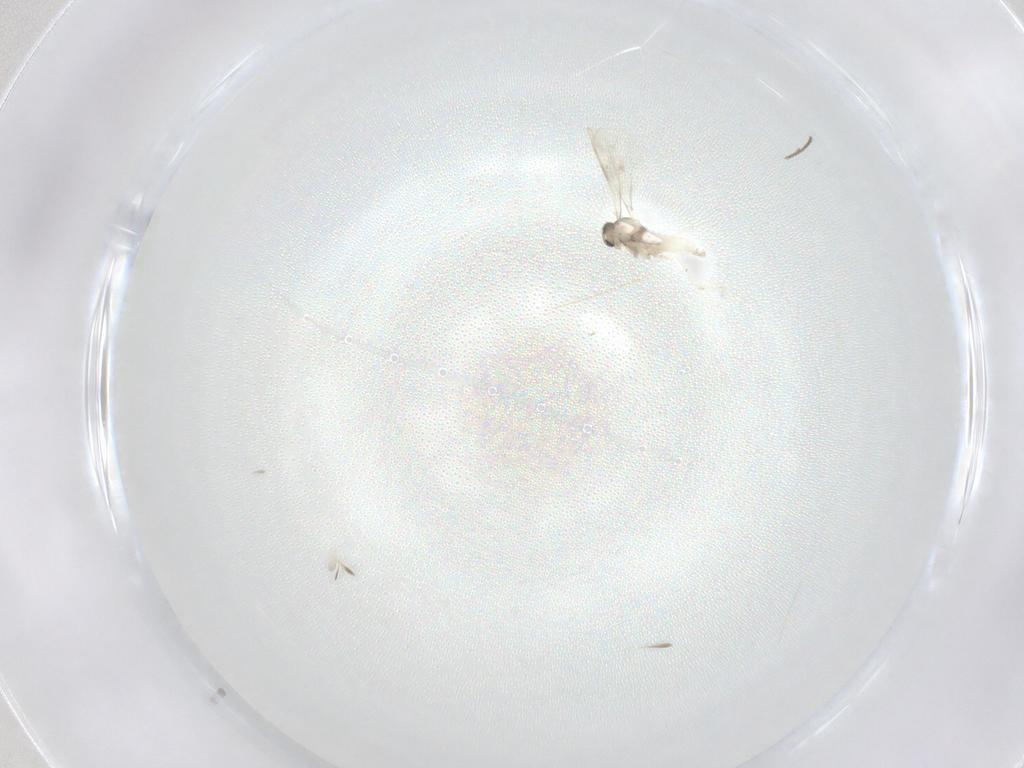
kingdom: Animalia
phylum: Arthropoda
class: Insecta
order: Diptera
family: Cecidomyiidae
